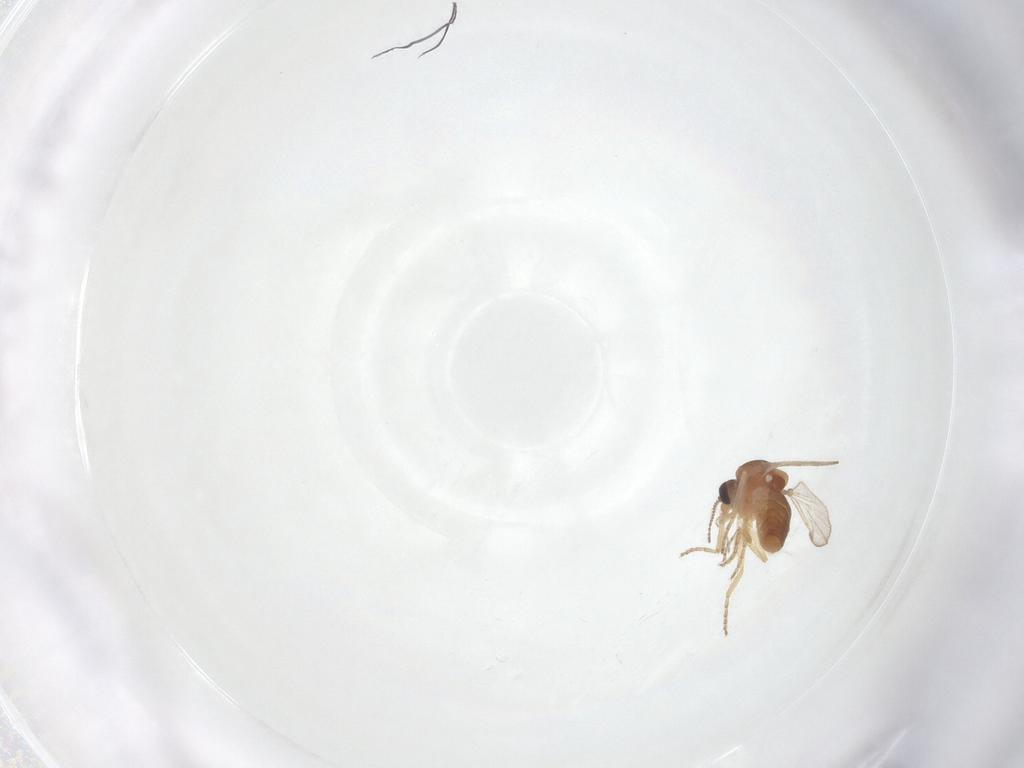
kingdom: Animalia
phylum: Arthropoda
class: Insecta
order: Diptera
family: Ceratopogonidae
